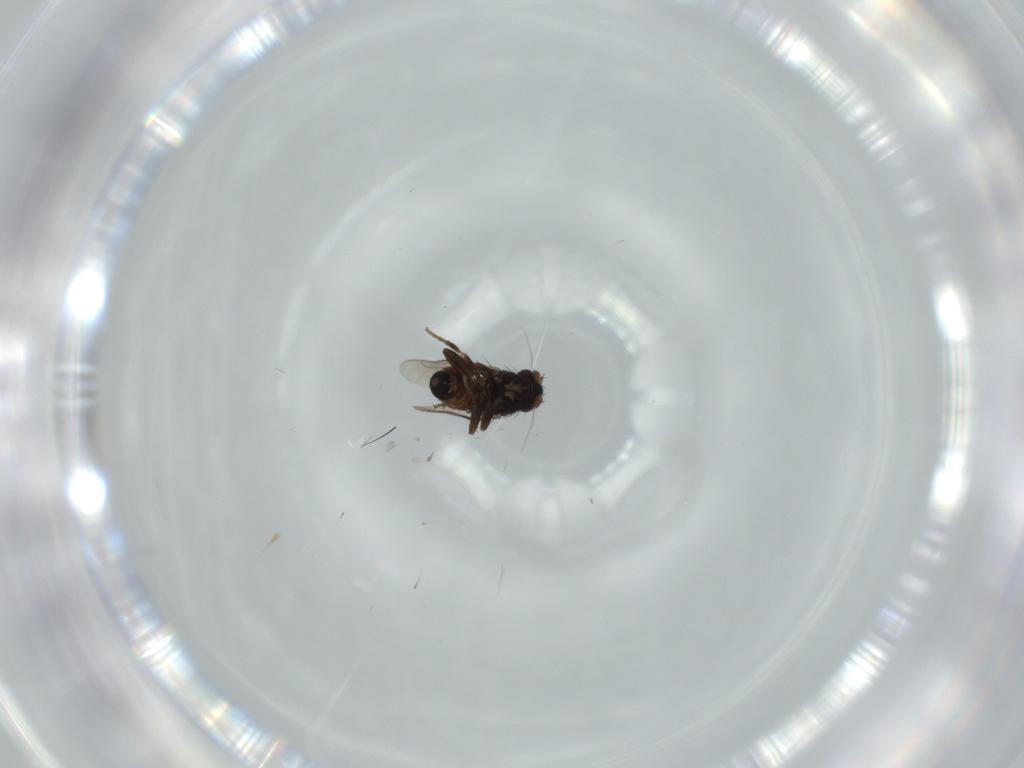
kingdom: Animalia
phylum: Arthropoda
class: Insecta
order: Diptera
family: Sphaeroceridae
